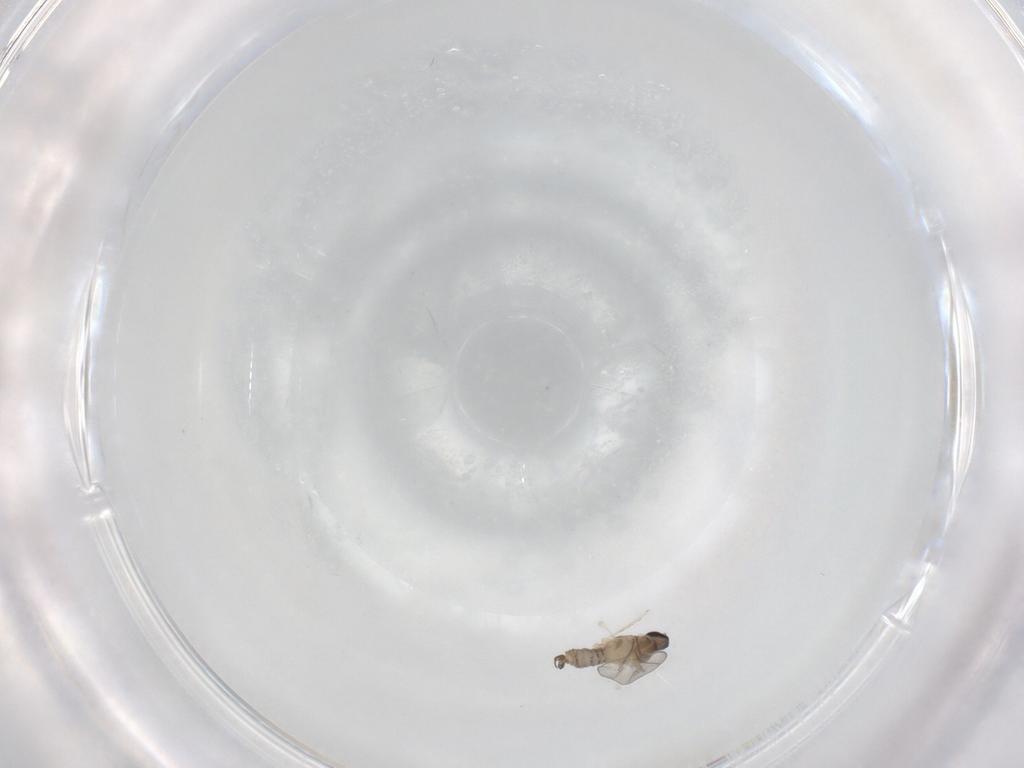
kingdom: Animalia
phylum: Arthropoda
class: Insecta
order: Diptera
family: Cecidomyiidae
